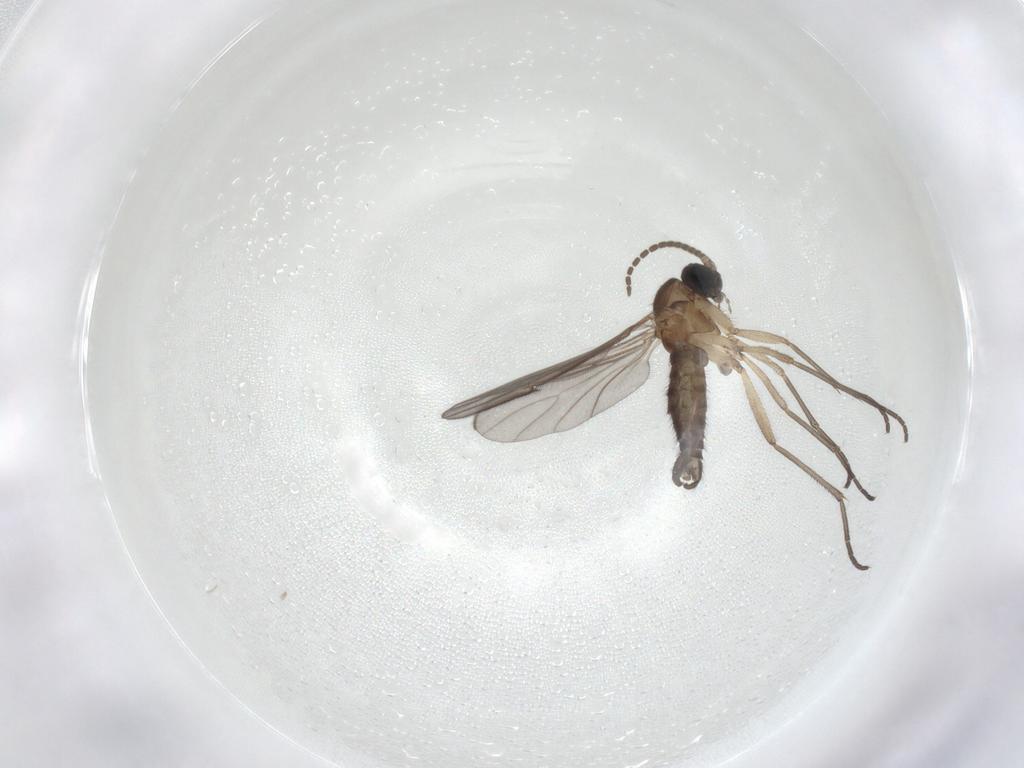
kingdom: Animalia
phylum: Arthropoda
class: Insecta
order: Diptera
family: Sciaridae
